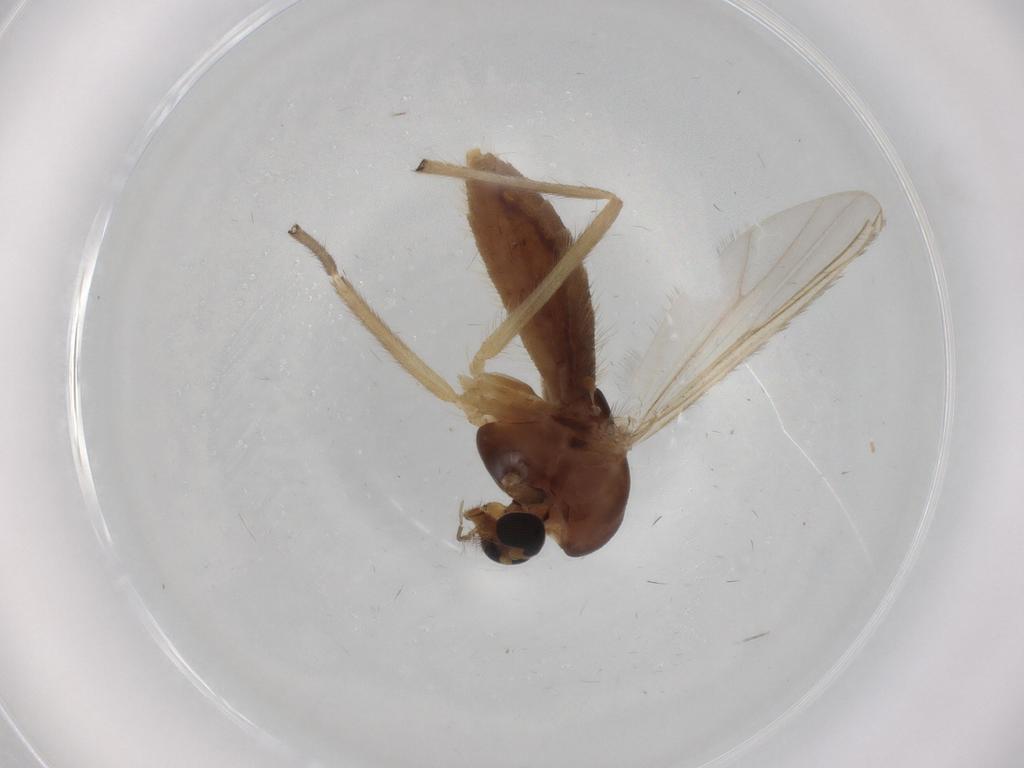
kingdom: Animalia
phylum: Arthropoda
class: Insecta
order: Diptera
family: Chironomidae
